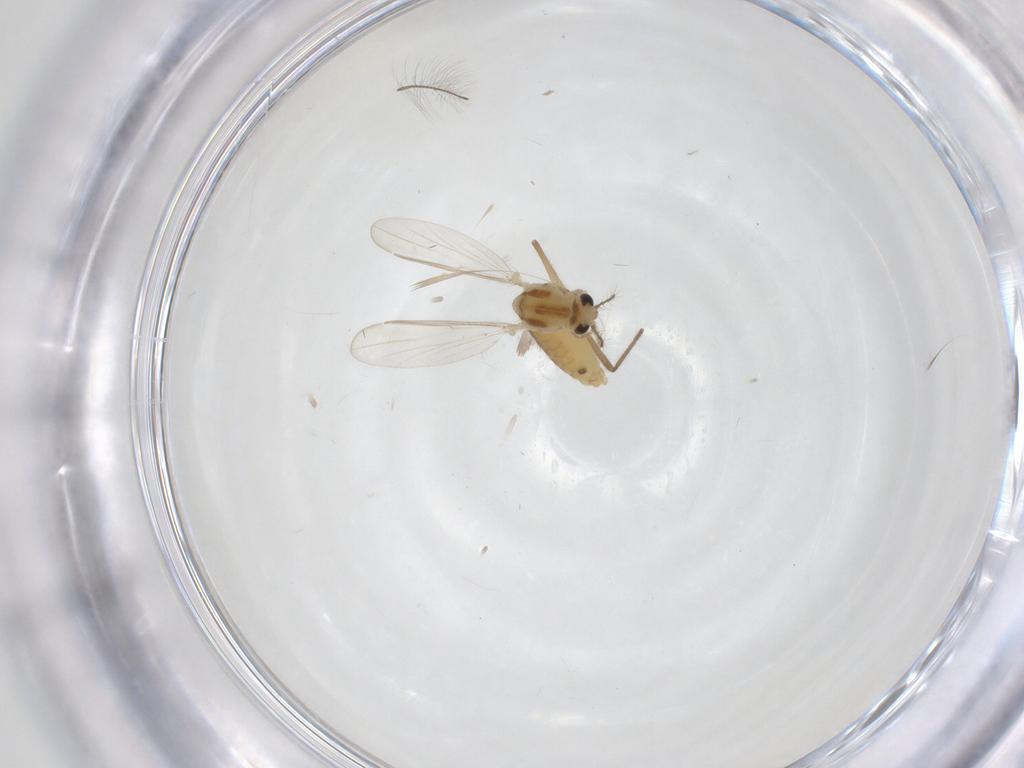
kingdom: Animalia
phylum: Arthropoda
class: Insecta
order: Diptera
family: Chironomidae
